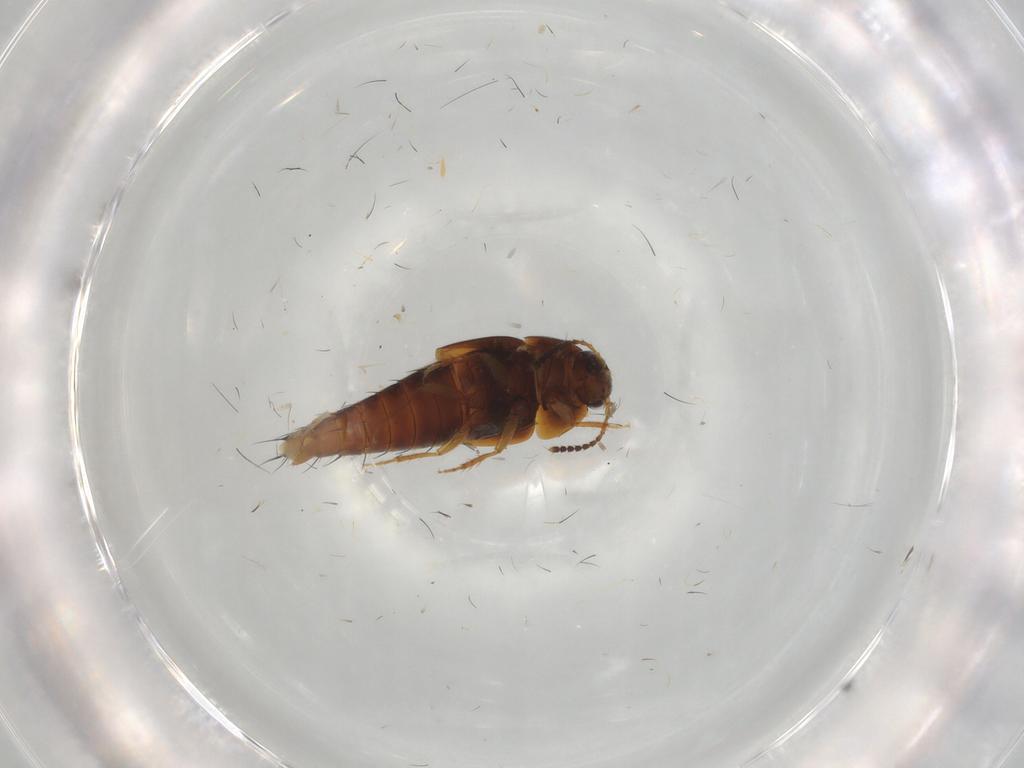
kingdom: Animalia
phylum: Arthropoda
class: Insecta
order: Coleoptera
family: Staphylinidae
